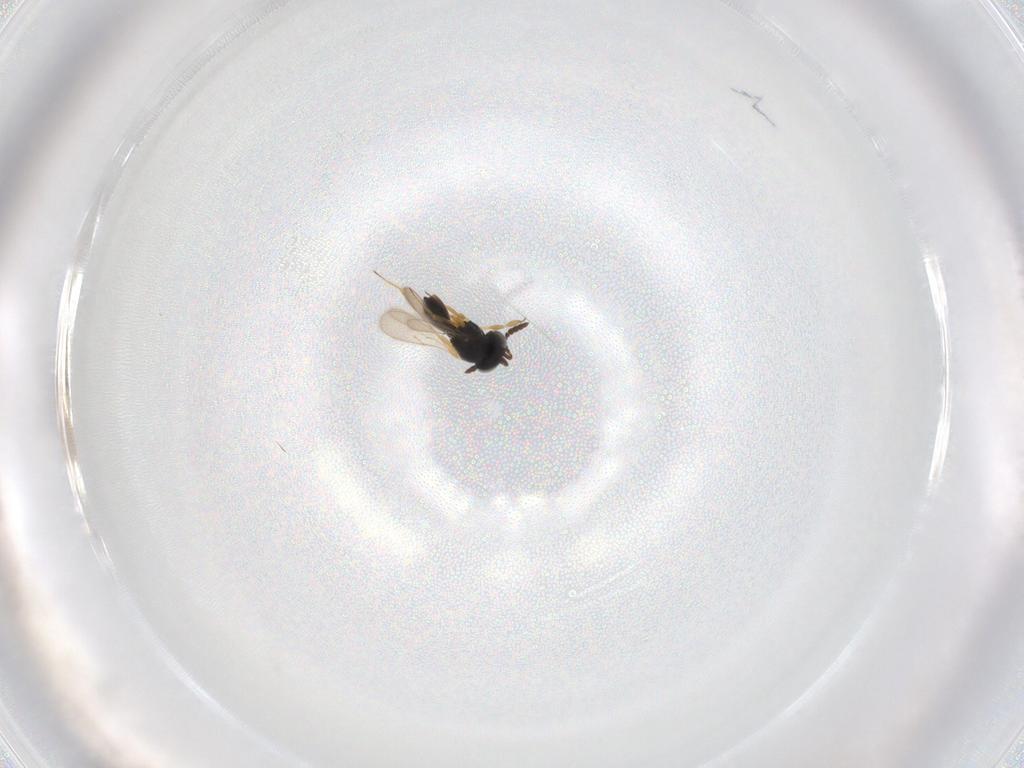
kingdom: Animalia
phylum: Arthropoda
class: Insecta
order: Hymenoptera
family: Scelionidae
